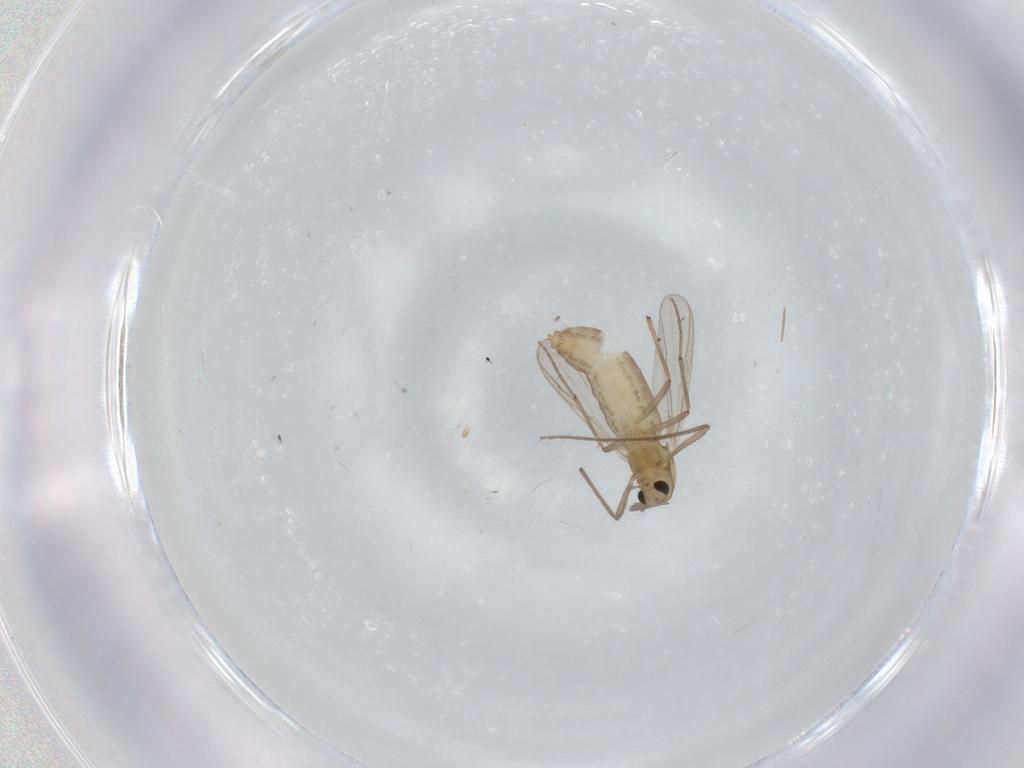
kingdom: Animalia
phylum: Arthropoda
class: Insecta
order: Diptera
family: Chironomidae
